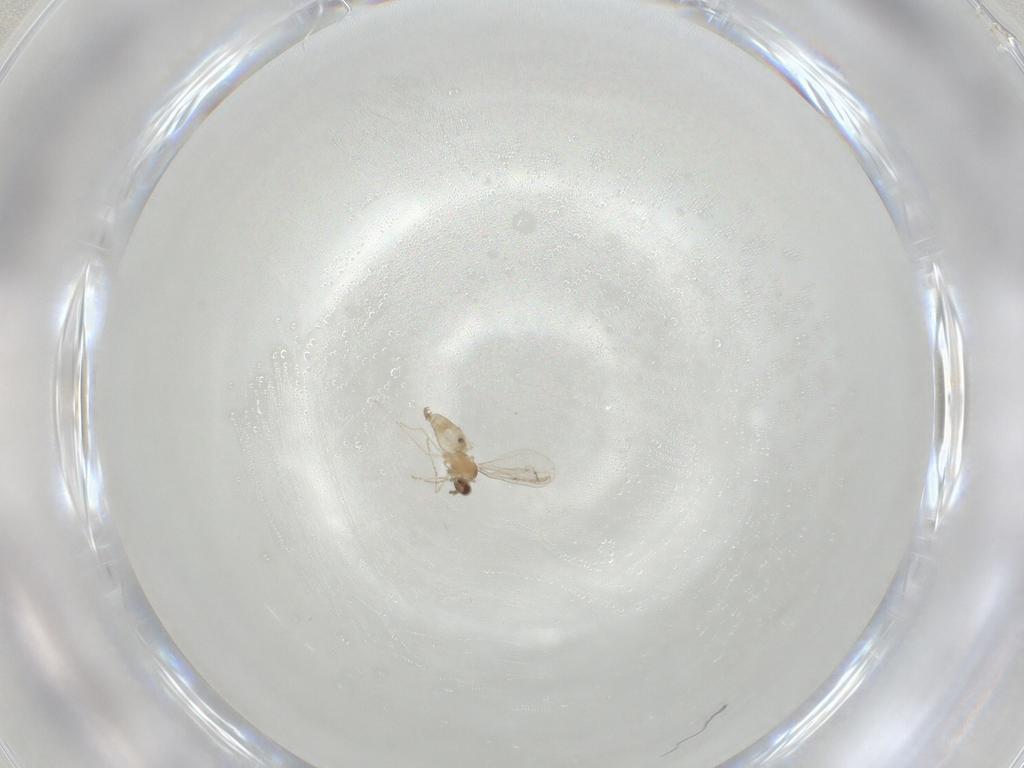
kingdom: Animalia
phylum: Arthropoda
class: Insecta
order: Diptera
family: Cecidomyiidae
